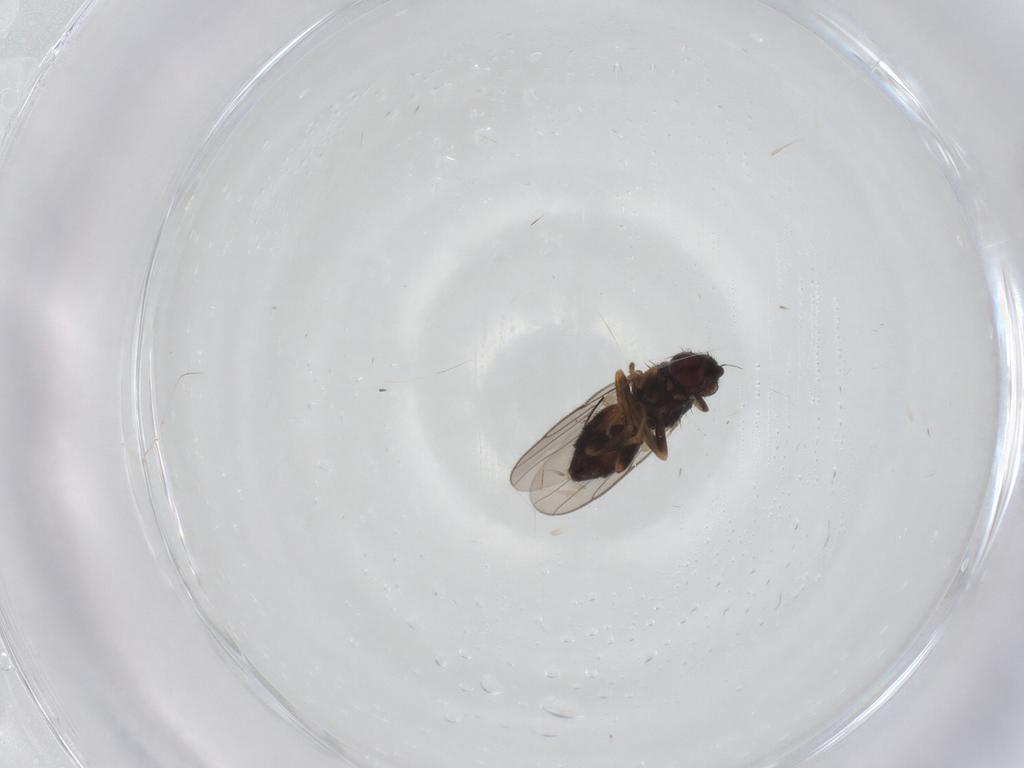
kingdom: Animalia
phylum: Arthropoda
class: Insecta
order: Diptera
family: Chloropidae
